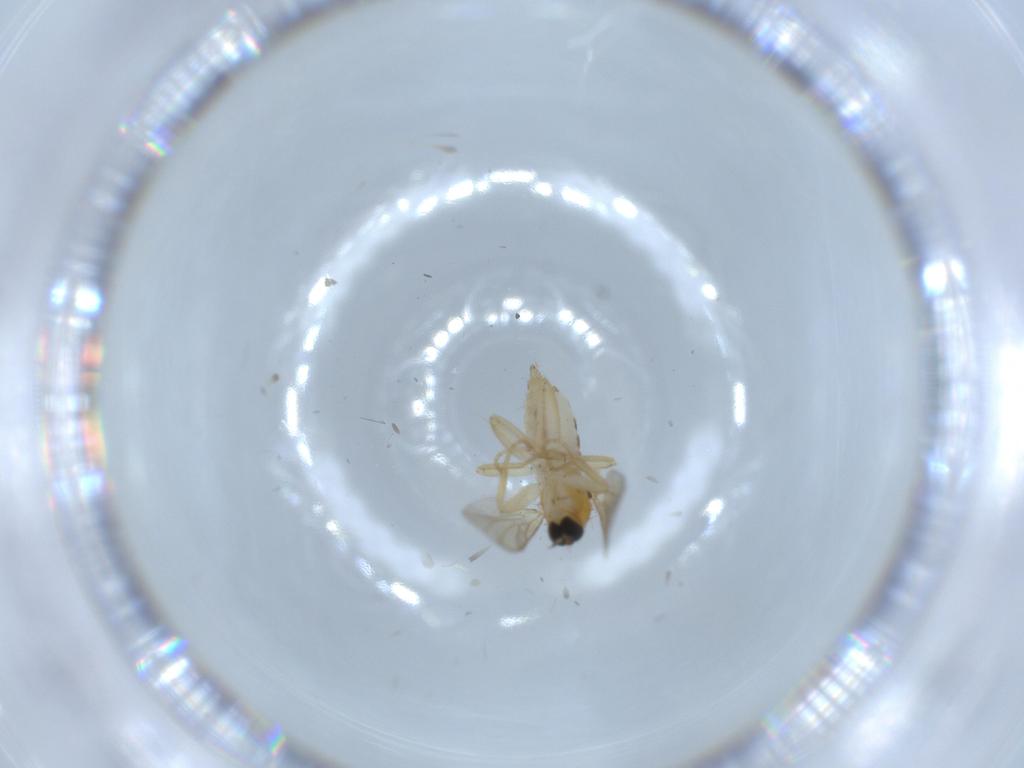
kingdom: Animalia
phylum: Arthropoda
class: Insecta
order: Diptera
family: Hybotidae
